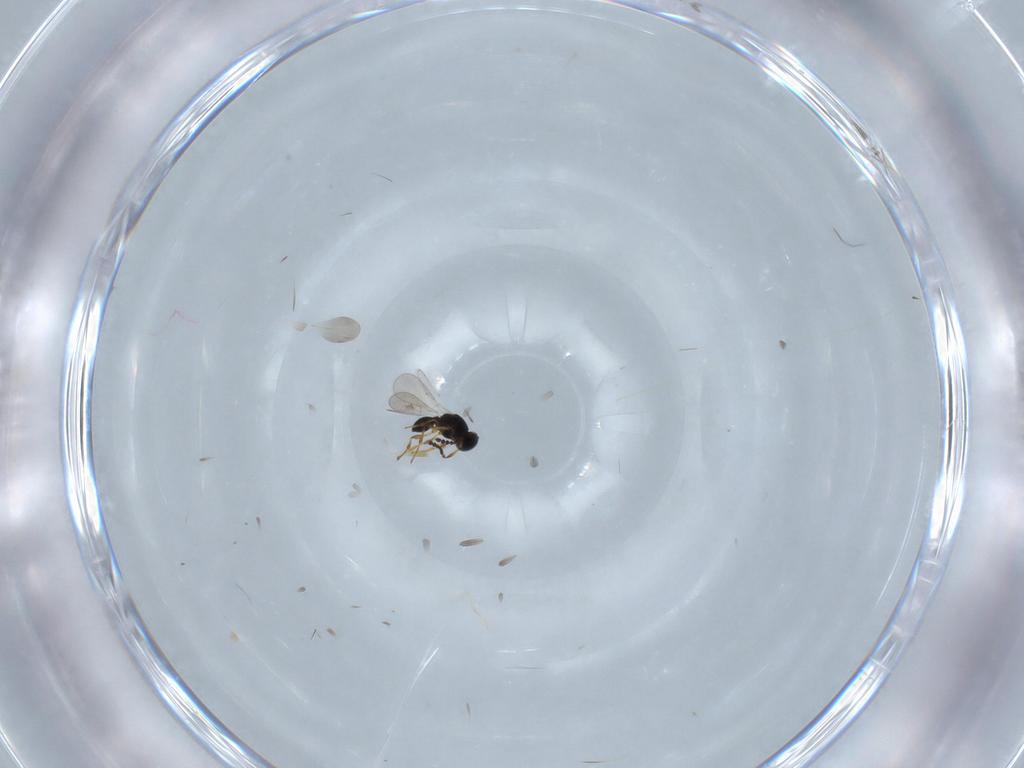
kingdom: Animalia
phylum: Arthropoda
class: Insecta
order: Hymenoptera
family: Platygastridae
